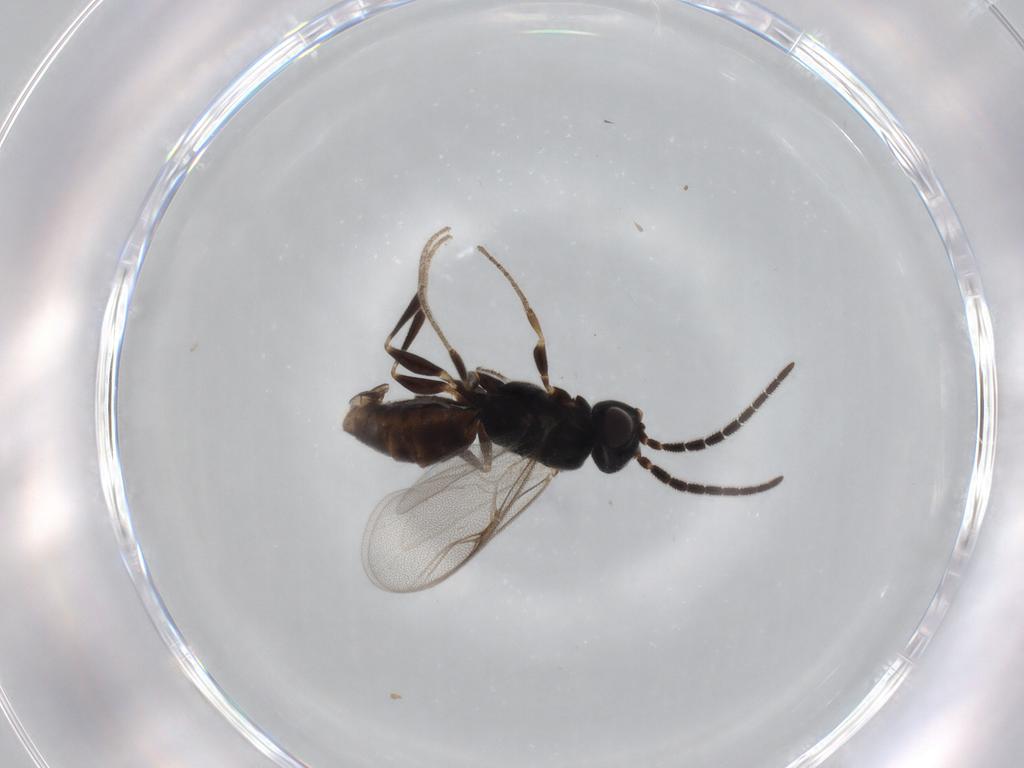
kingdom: Animalia
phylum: Arthropoda
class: Insecta
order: Hymenoptera
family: Dryinidae
